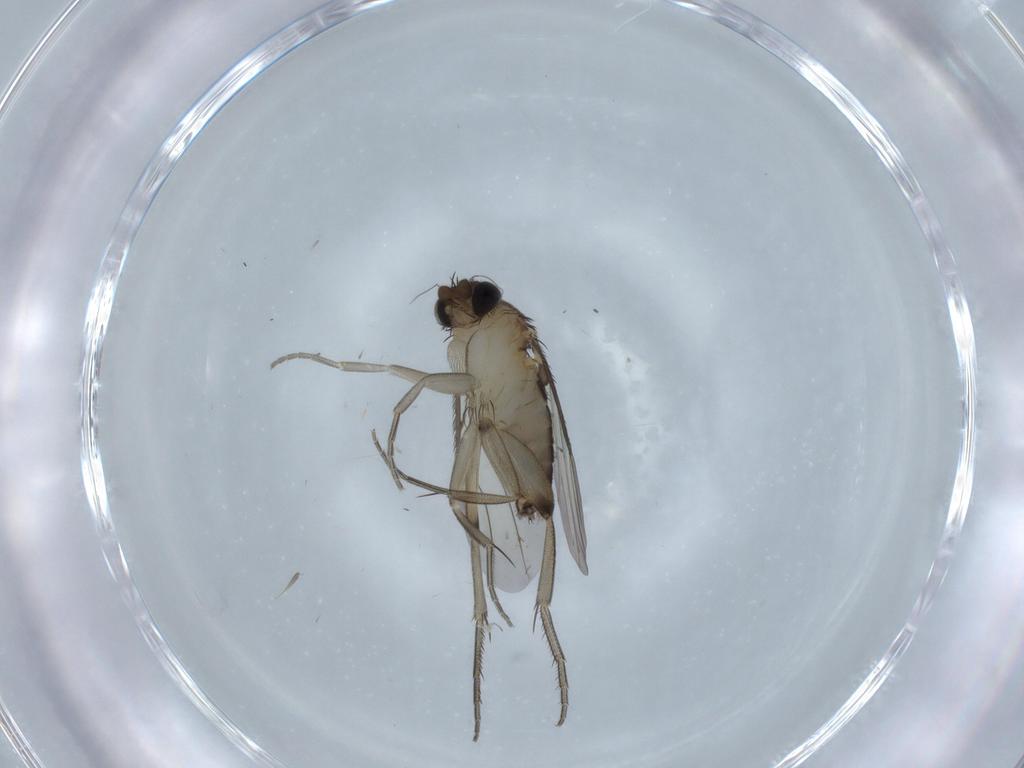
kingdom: Animalia
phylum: Arthropoda
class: Insecta
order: Diptera
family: Phoridae
